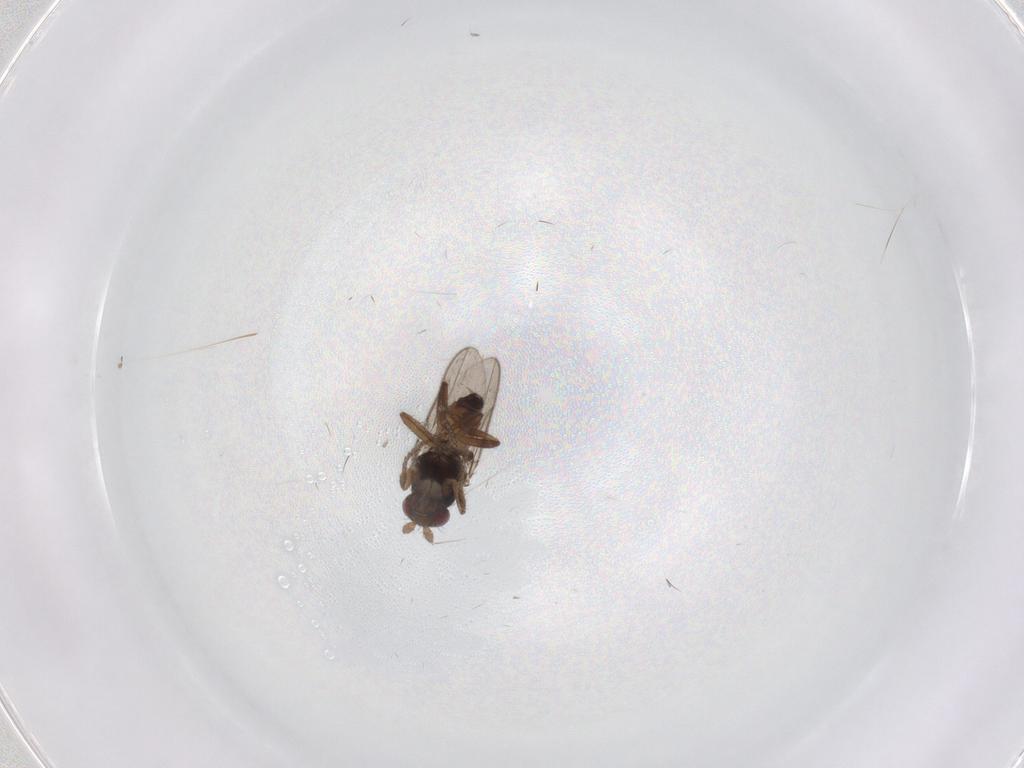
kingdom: Animalia
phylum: Arthropoda
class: Insecta
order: Diptera
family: Sphaeroceridae
